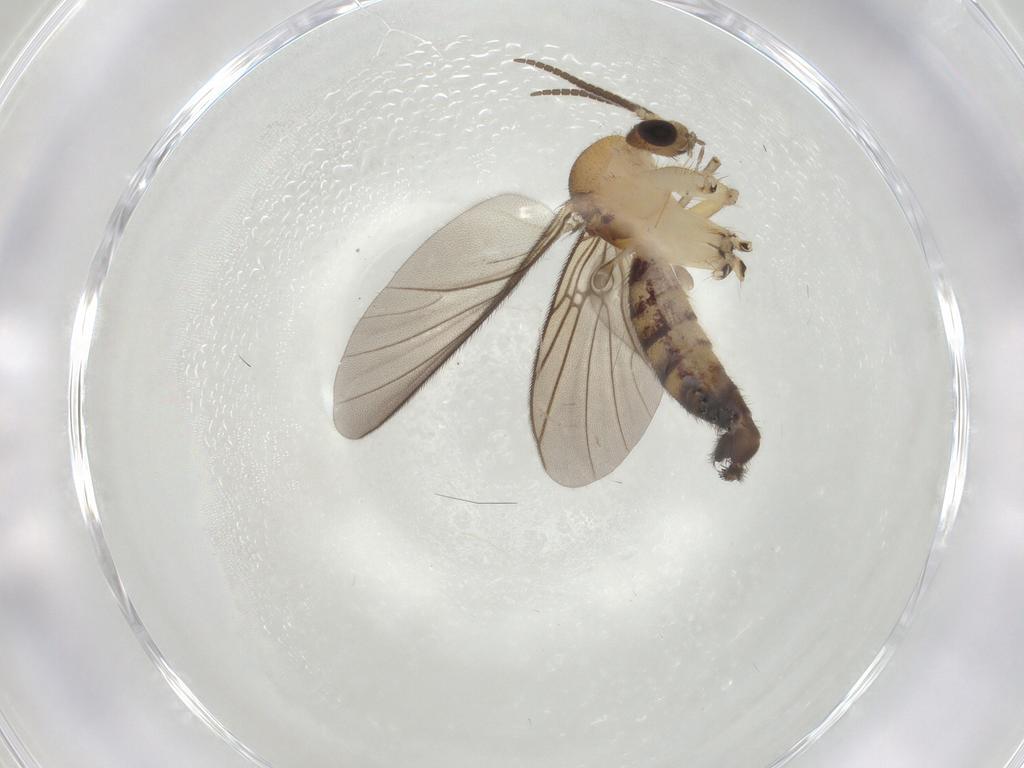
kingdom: Animalia
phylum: Arthropoda
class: Insecta
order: Diptera
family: Mycetophilidae
